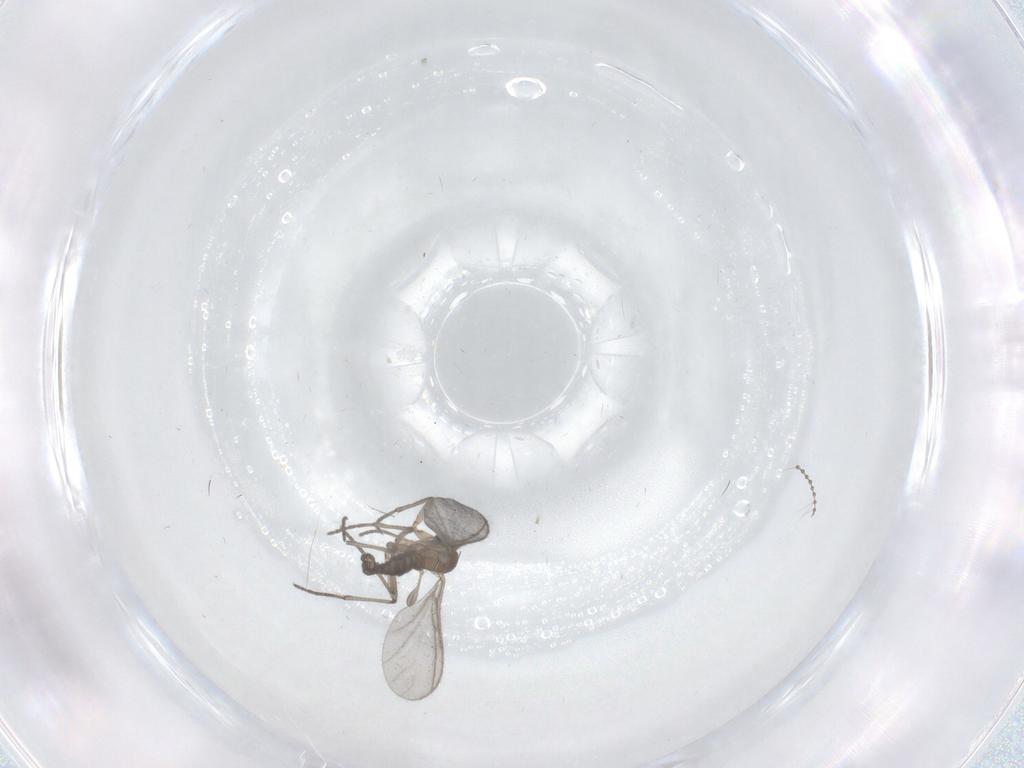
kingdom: Animalia
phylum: Arthropoda
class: Insecta
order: Diptera
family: Sciaridae
